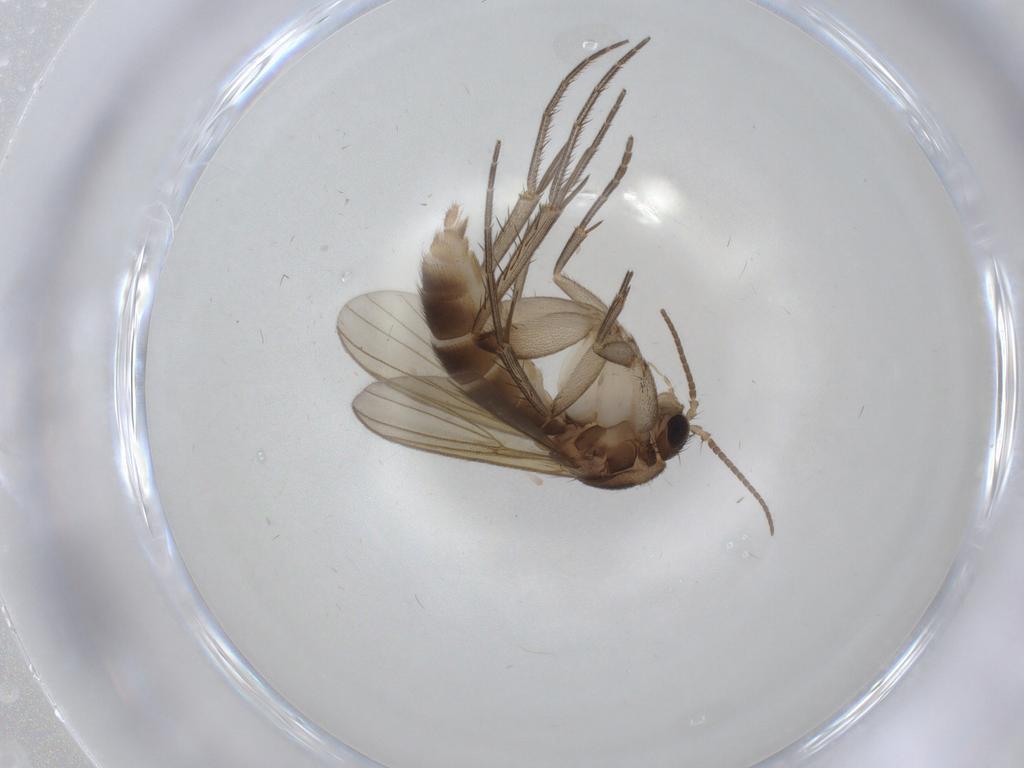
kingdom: Animalia
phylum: Arthropoda
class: Insecta
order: Diptera
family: Mycetophilidae
